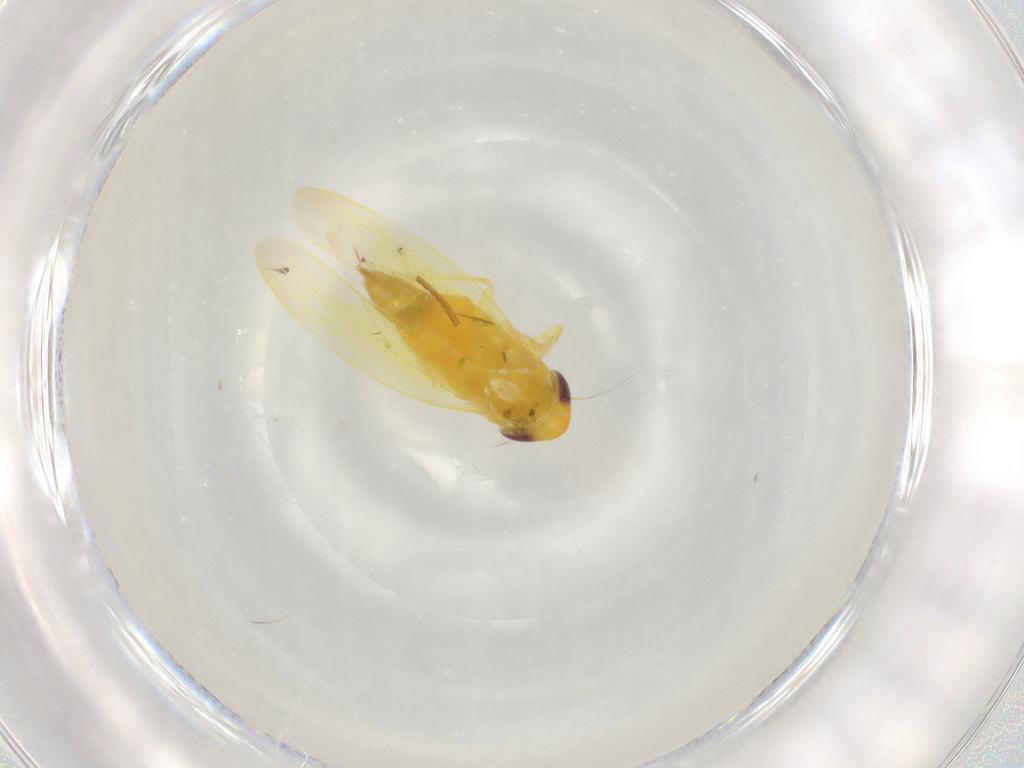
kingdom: Animalia
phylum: Arthropoda
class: Insecta
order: Hemiptera
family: Cicadellidae
